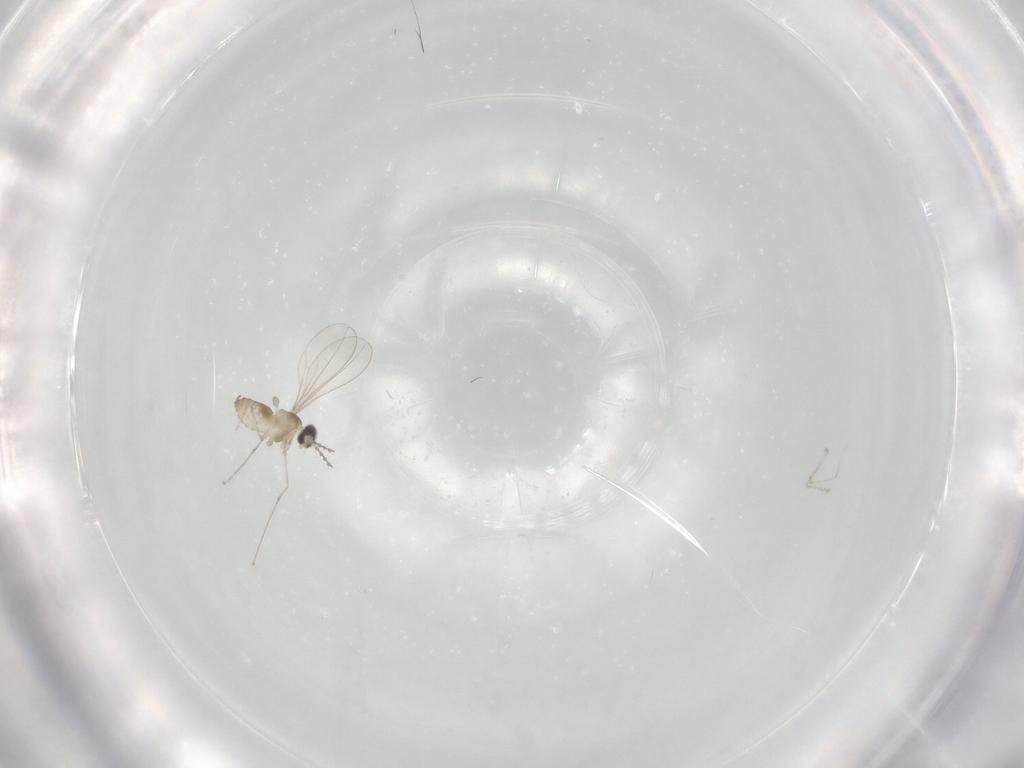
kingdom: Animalia
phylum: Arthropoda
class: Insecta
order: Diptera
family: Cecidomyiidae
